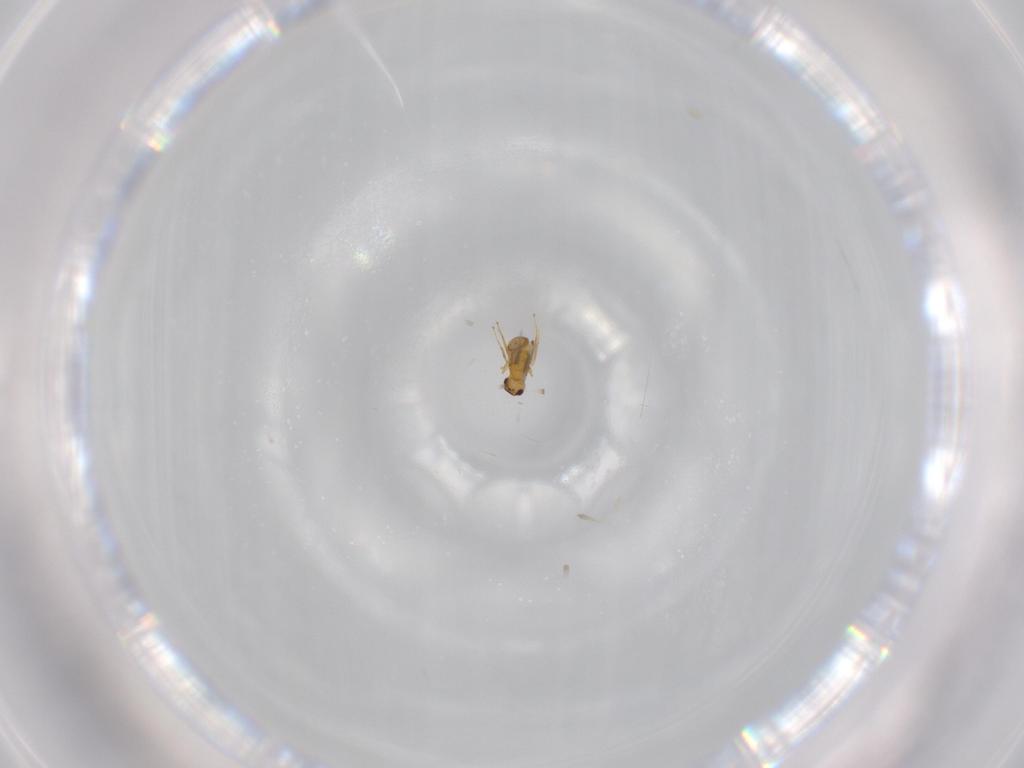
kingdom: Animalia
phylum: Arthropoda
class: Insecta
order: Hymenoptera
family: Mymaridae
